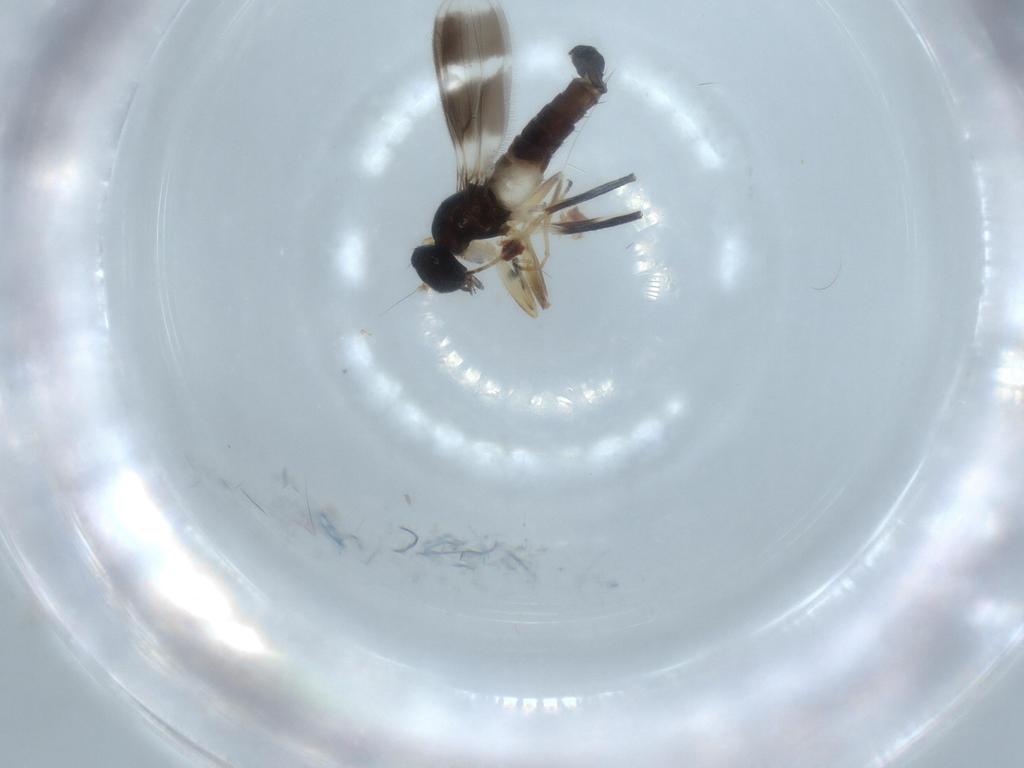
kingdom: Animalia
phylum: Arthropoda
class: Insecta
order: Diptera
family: Hybotidae
